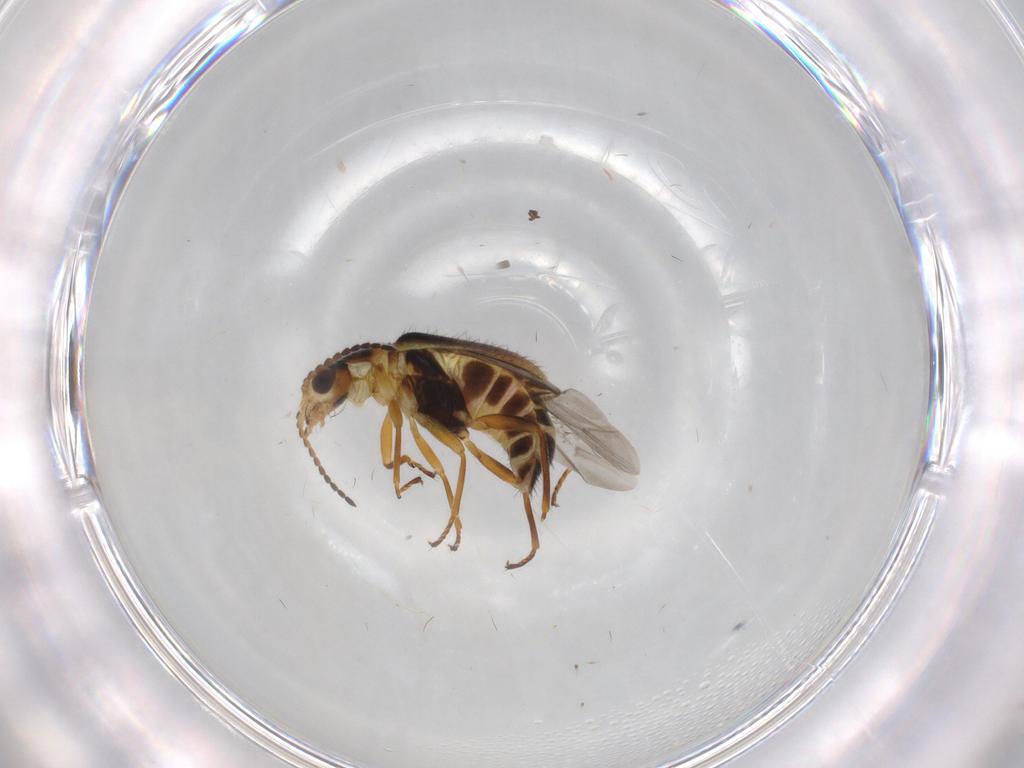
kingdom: Animalia
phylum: Arthropoda
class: Insecta
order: Coleoptera
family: Melyridae
